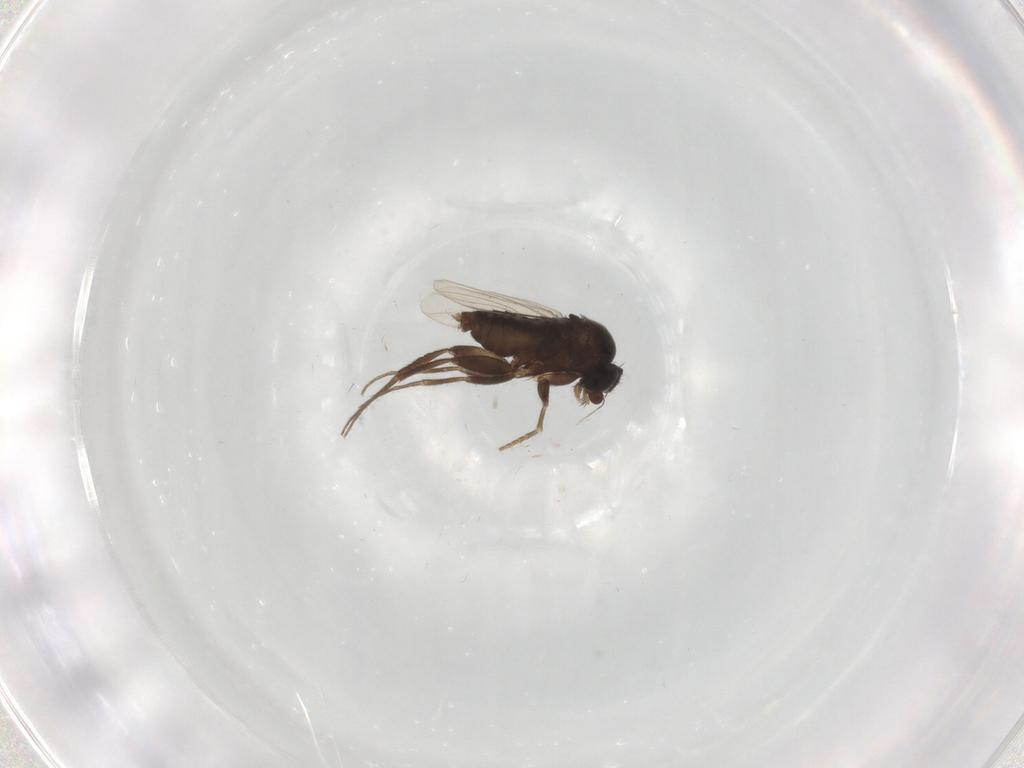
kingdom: Animalia
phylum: Arthropoda
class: Insecta
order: Diptera
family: Phoridae
